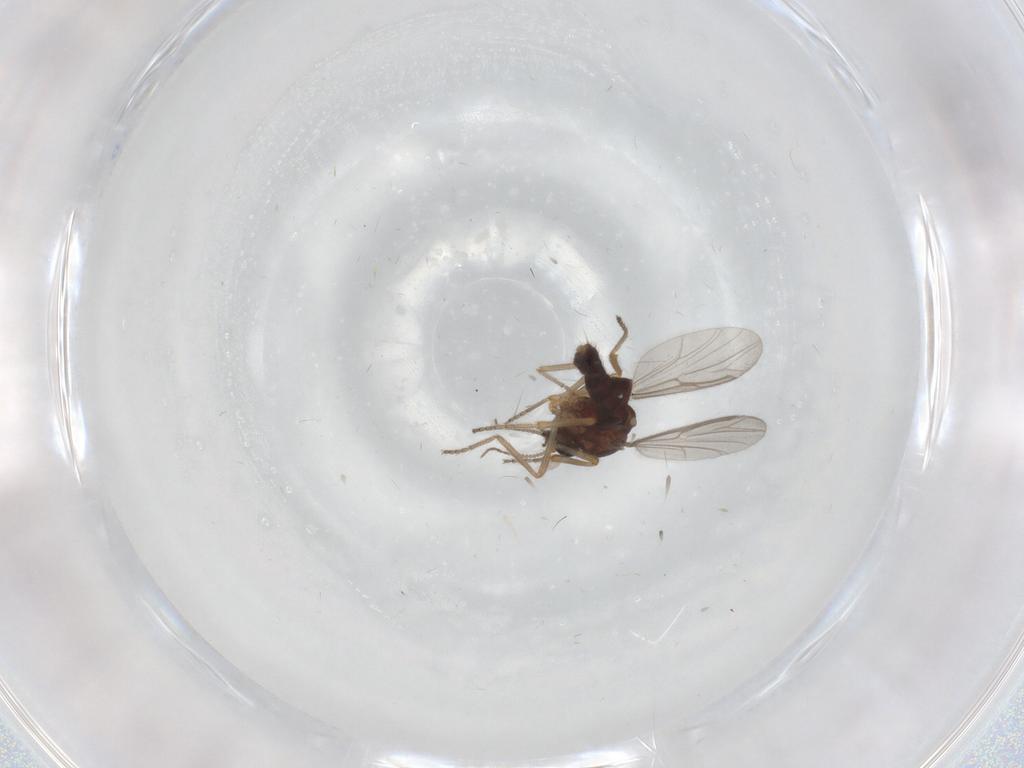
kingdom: Animalia
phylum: Arthropoda
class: Insecta
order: Diptera
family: Ceratopogonidae
